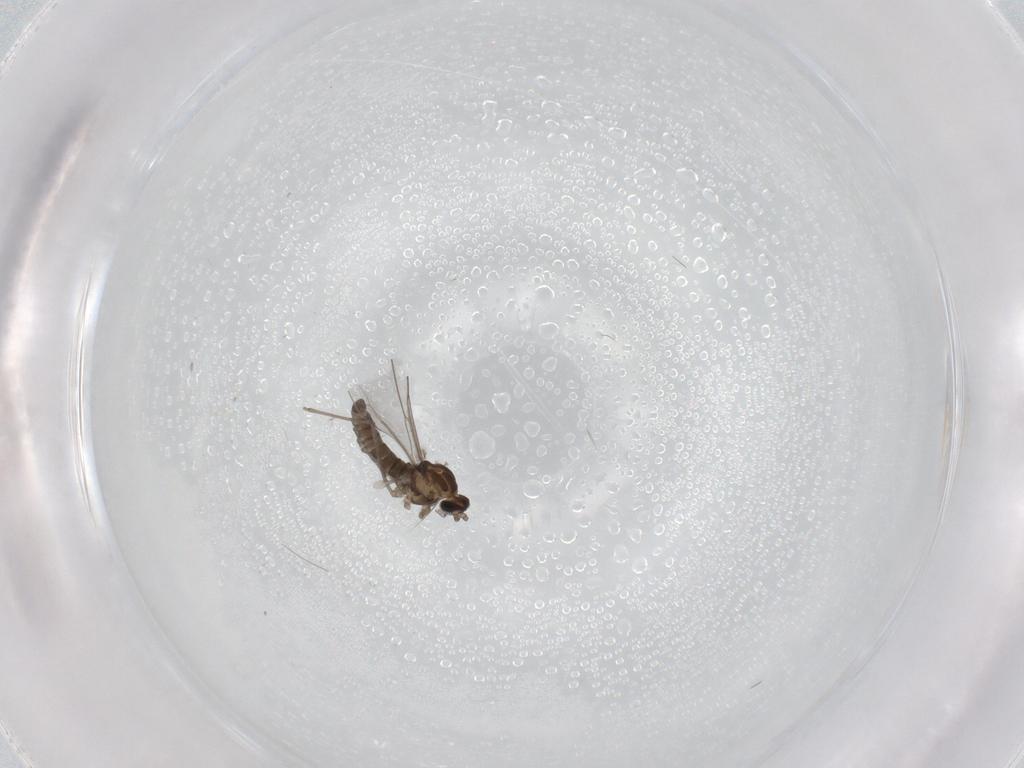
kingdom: Animalia
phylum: Arthropoda
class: Insecta
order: Diptera
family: Cecidomyiidae
